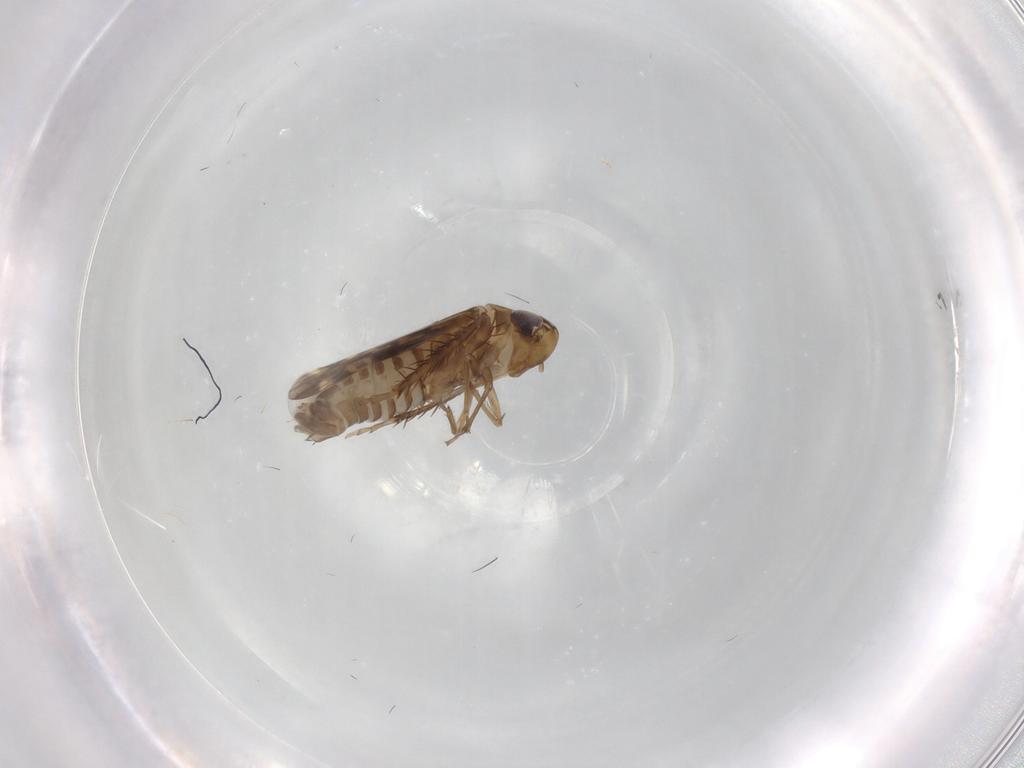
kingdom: Animalia
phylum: Arthropoda
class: Insecta
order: Hemiptera
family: Cicadellidae
